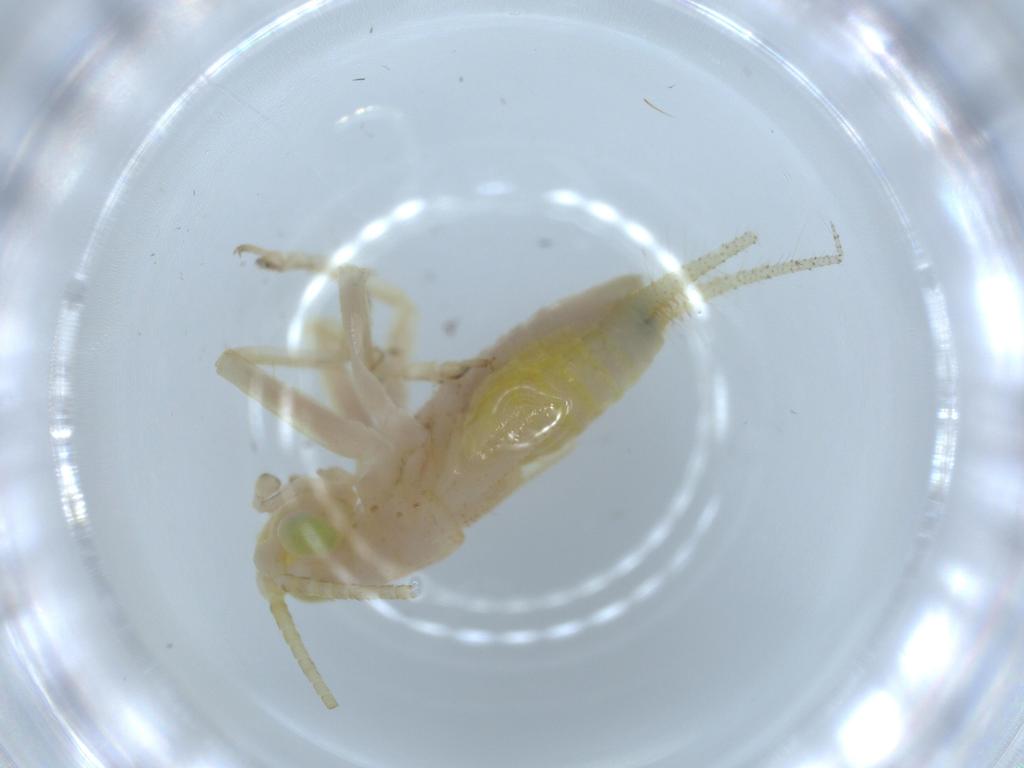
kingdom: Animalia
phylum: Arthropoda
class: Insecta
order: Orthoptera
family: Trigonidiidae
